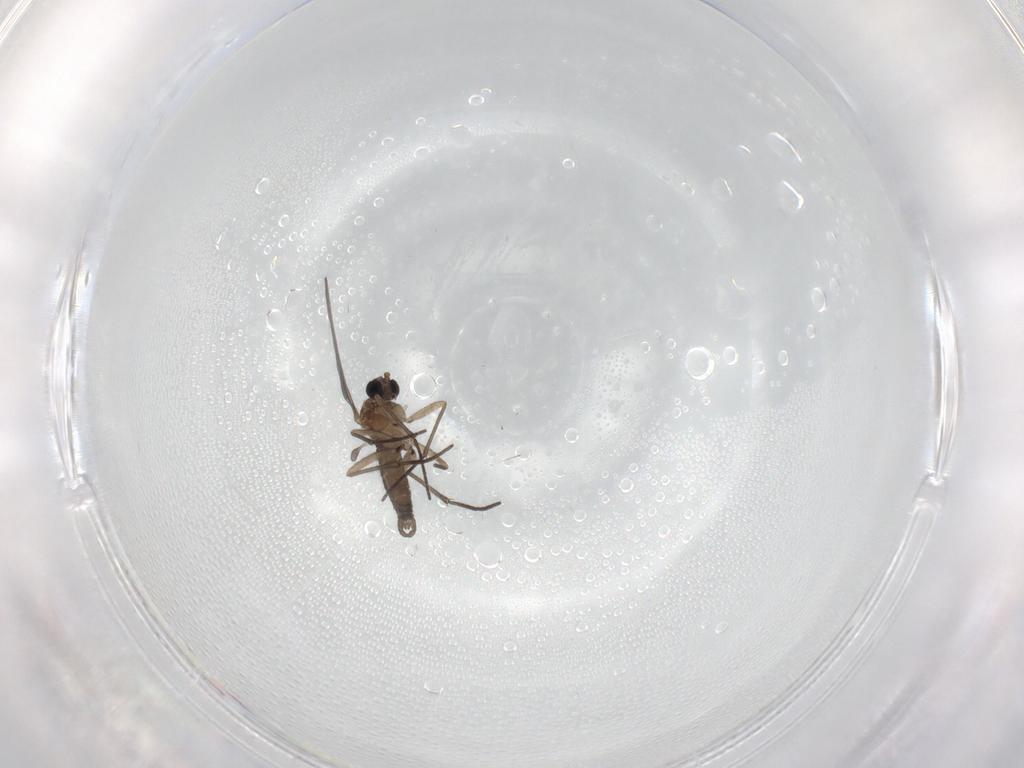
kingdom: Animalia
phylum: Arthropoda
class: Insecta
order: Diptera
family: Sciaridae
